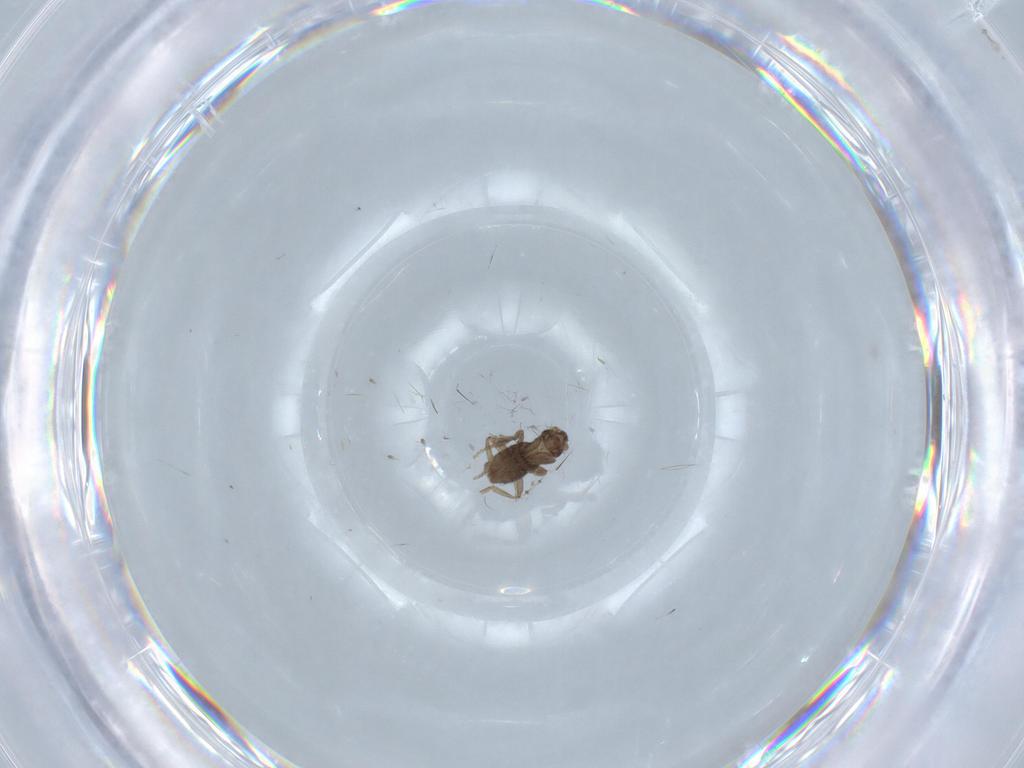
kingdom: Animalia
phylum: Arthropoda
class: Insecta
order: Diptera
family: Cecidomyiidae
